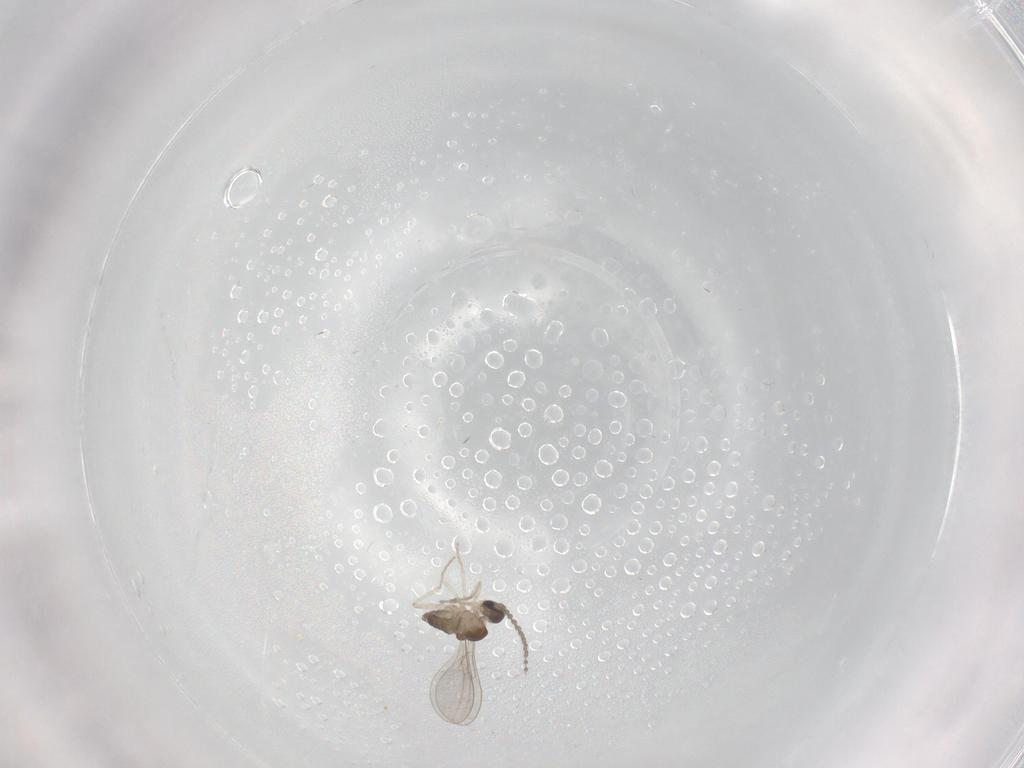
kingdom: Animalia
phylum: Arthropoda
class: Insecta
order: Diptera
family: Cecidomyiidae
